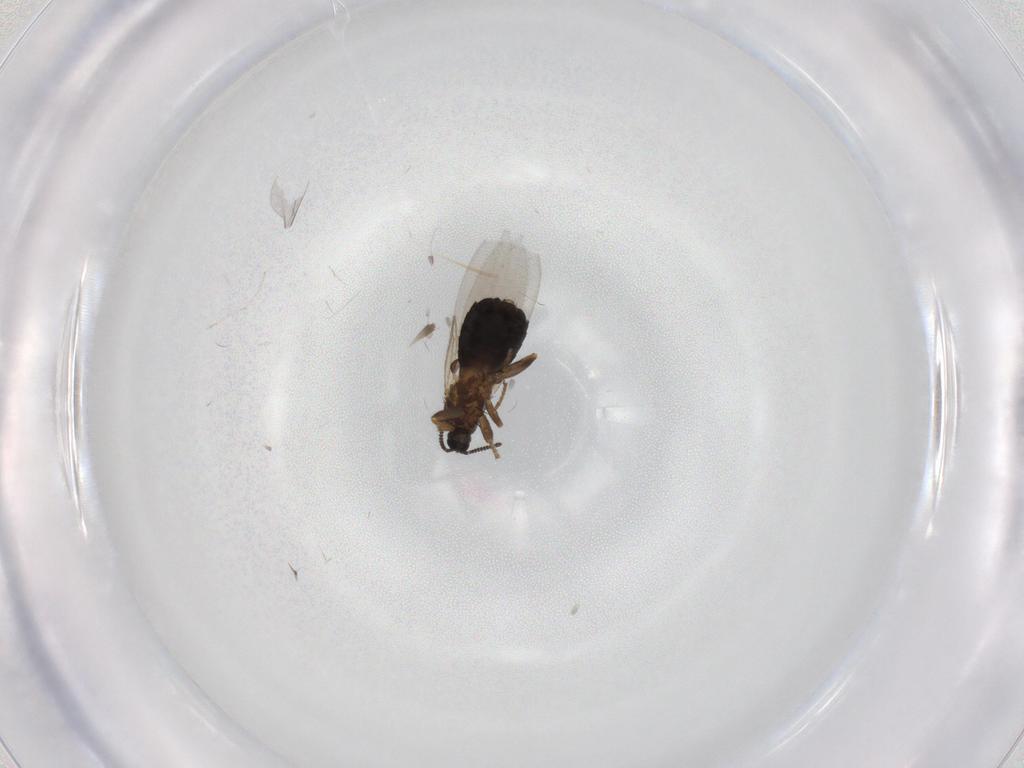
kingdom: Animalia
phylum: Arthropoda
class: Insecta
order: Diptera
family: Scatopsidae
